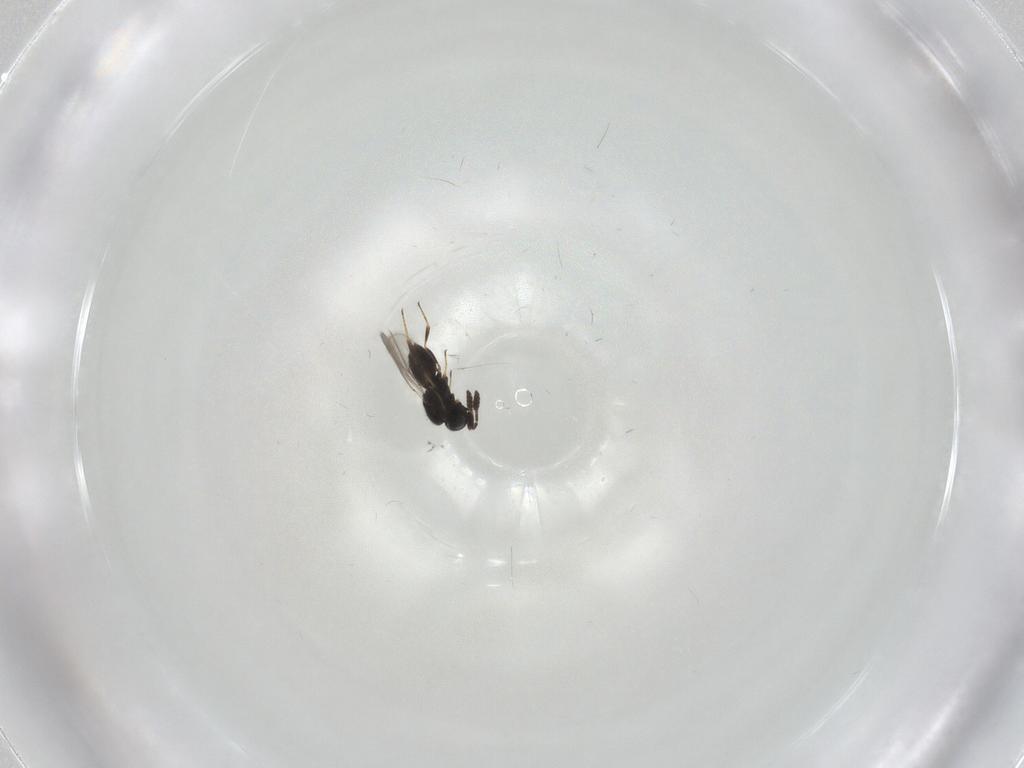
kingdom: Animalia
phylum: Arthropoda
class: Insecta
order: Hymenoptera
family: Scelionidae
